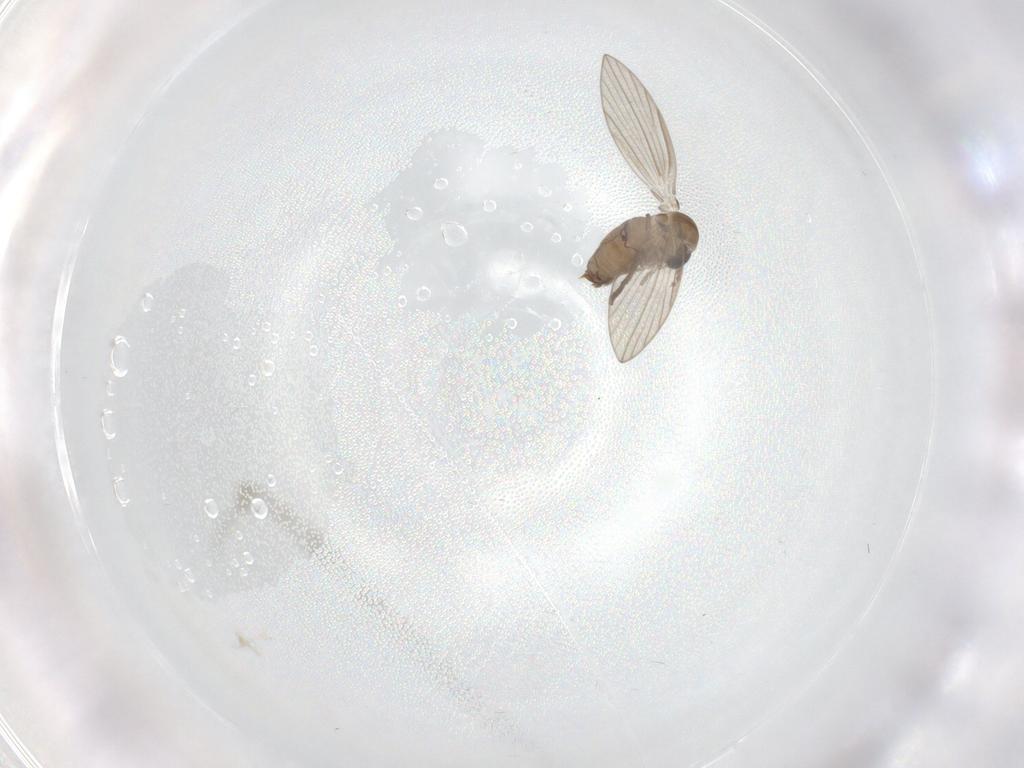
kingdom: Animalia
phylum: Arthropoda
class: Insecta
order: Diptera
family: Psychodidae
